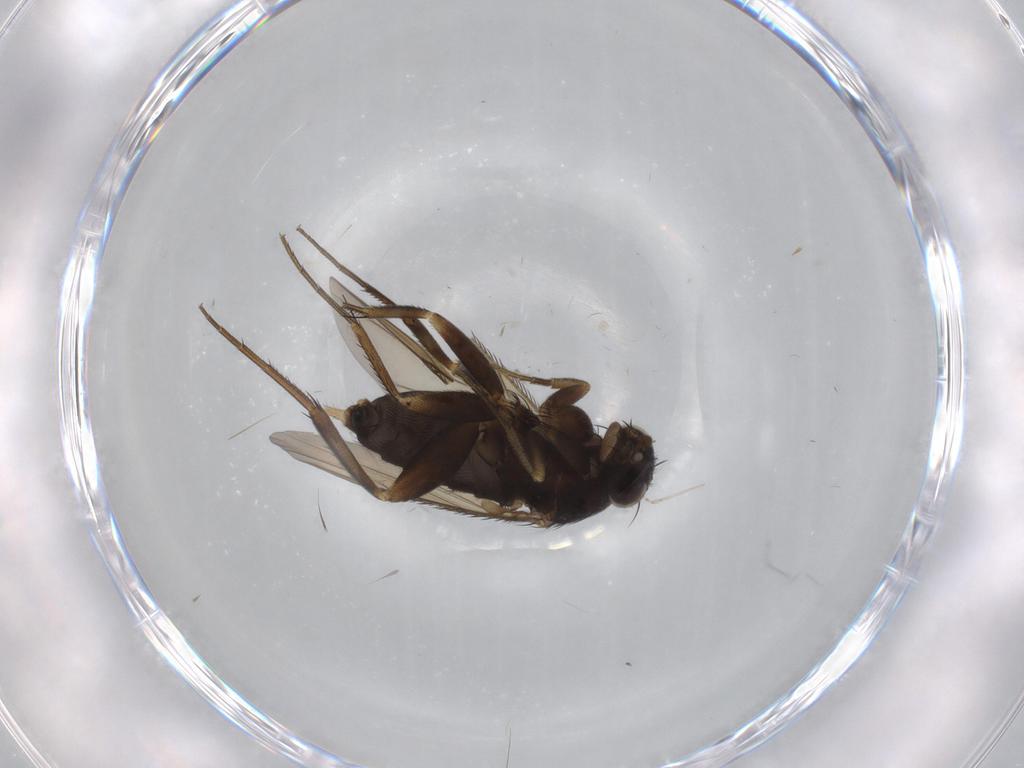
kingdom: Animalia
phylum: Arthropoda
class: Insecta
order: Diptera
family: Phoridae
